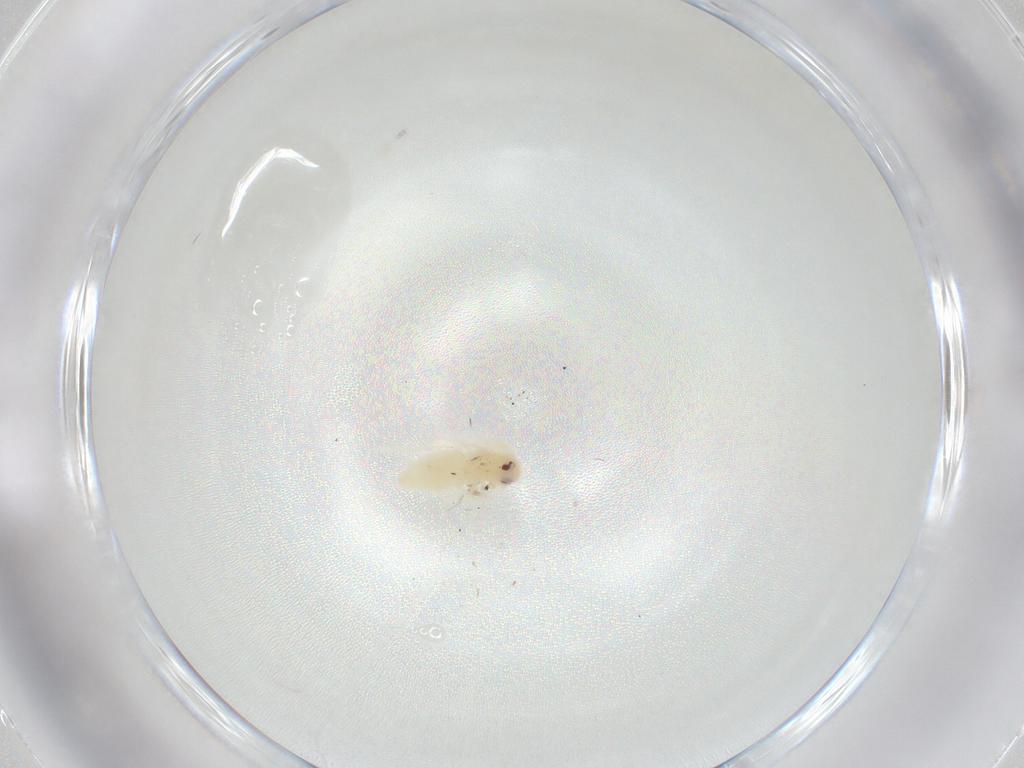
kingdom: Animalia
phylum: Arthropoda
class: Insecta
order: Hemiptera
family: Aleyrodidae
